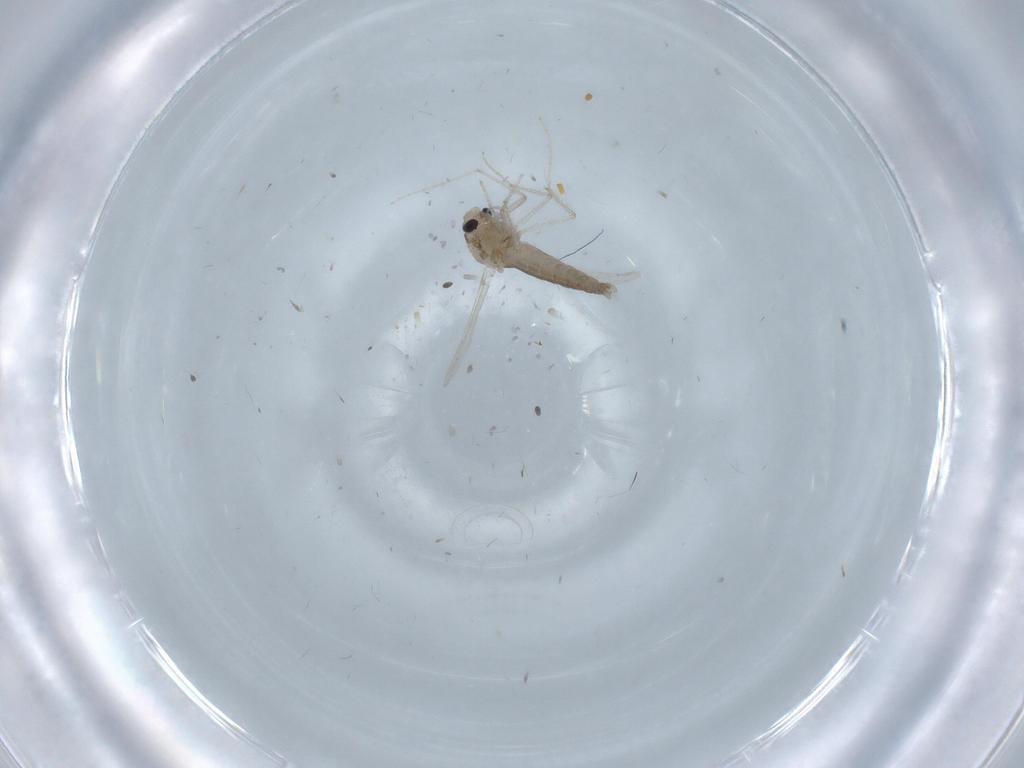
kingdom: Animalia
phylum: Arthropoda
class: Insecta
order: Diptera
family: Chironomidae
